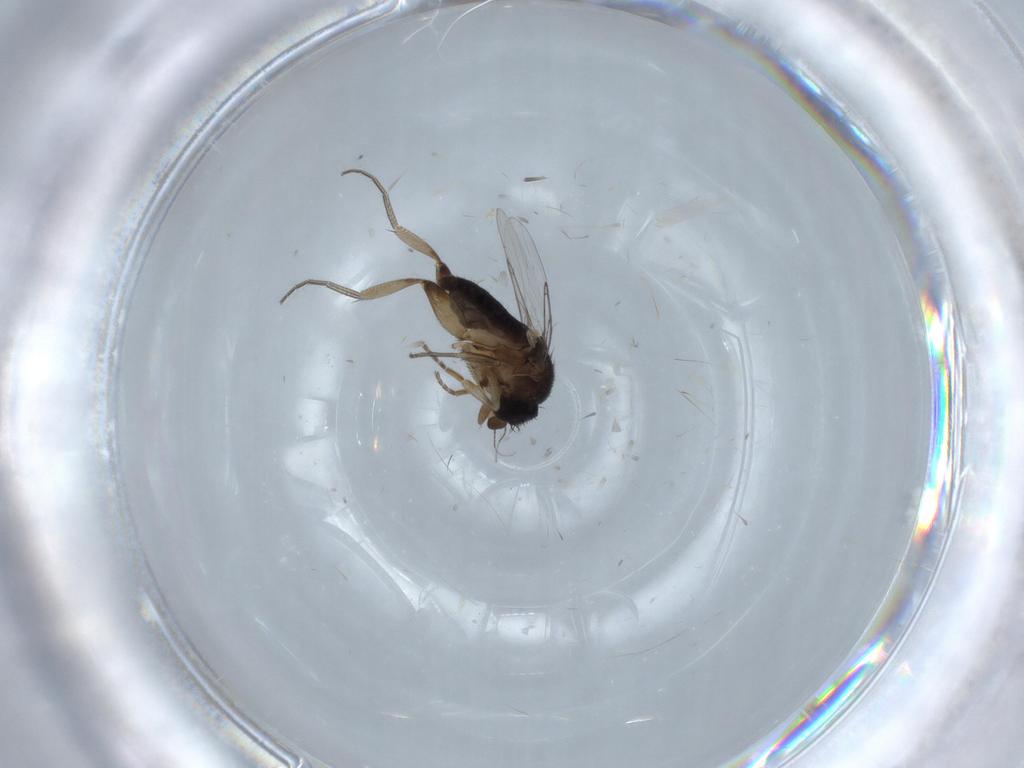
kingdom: Animalia
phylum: Arthropoda
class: Insecta
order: Diptera
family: Phoridae
